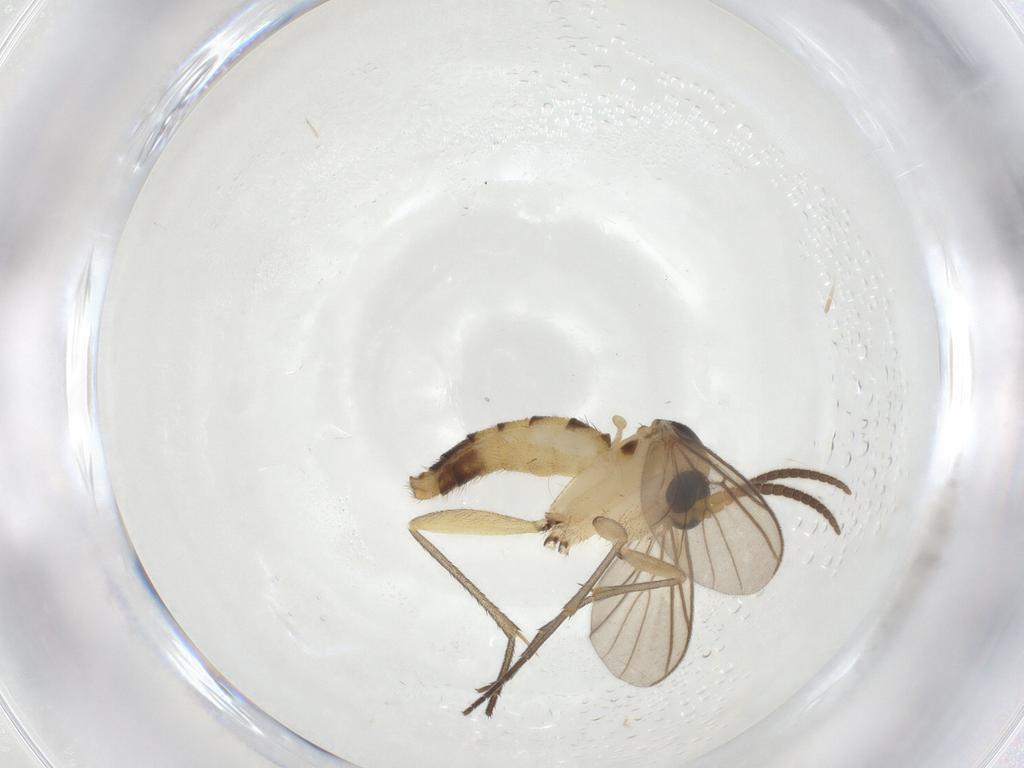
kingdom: Animalia
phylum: Arthropoda
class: Insecta
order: Diptera
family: Mycetophilidae
